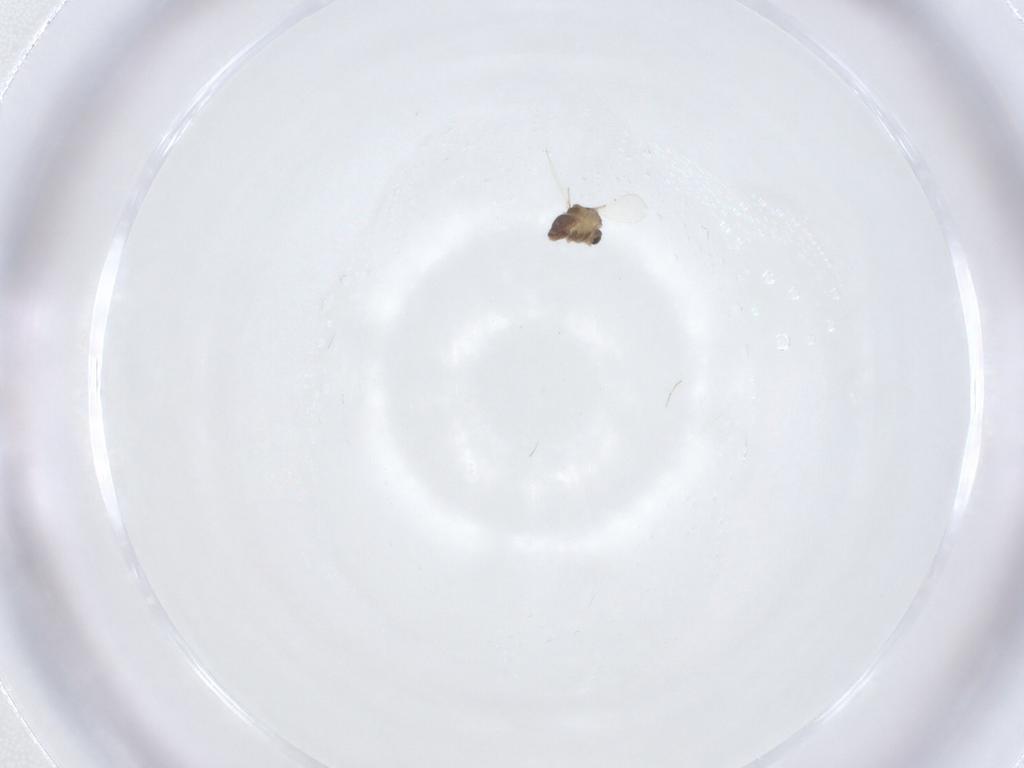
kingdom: Animalia
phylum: Arthropoda
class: Insecta
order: Diptera
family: Chironomidae
